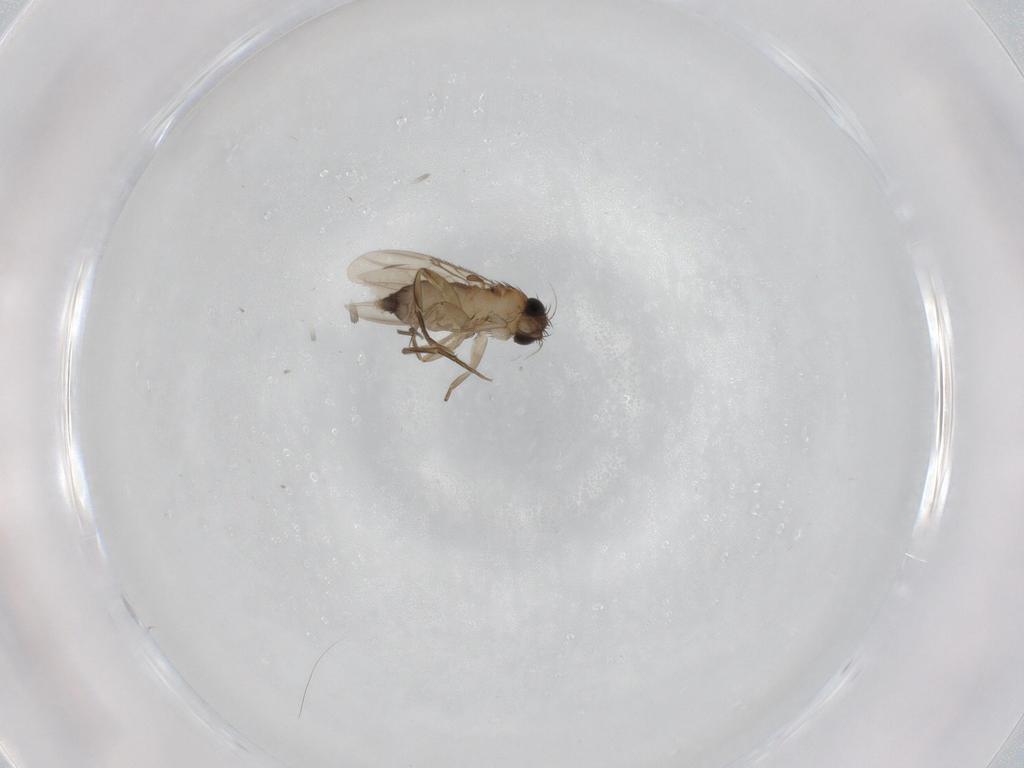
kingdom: Animalia
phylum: Arthropoda
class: Insecta
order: Diptera
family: Phoridae
